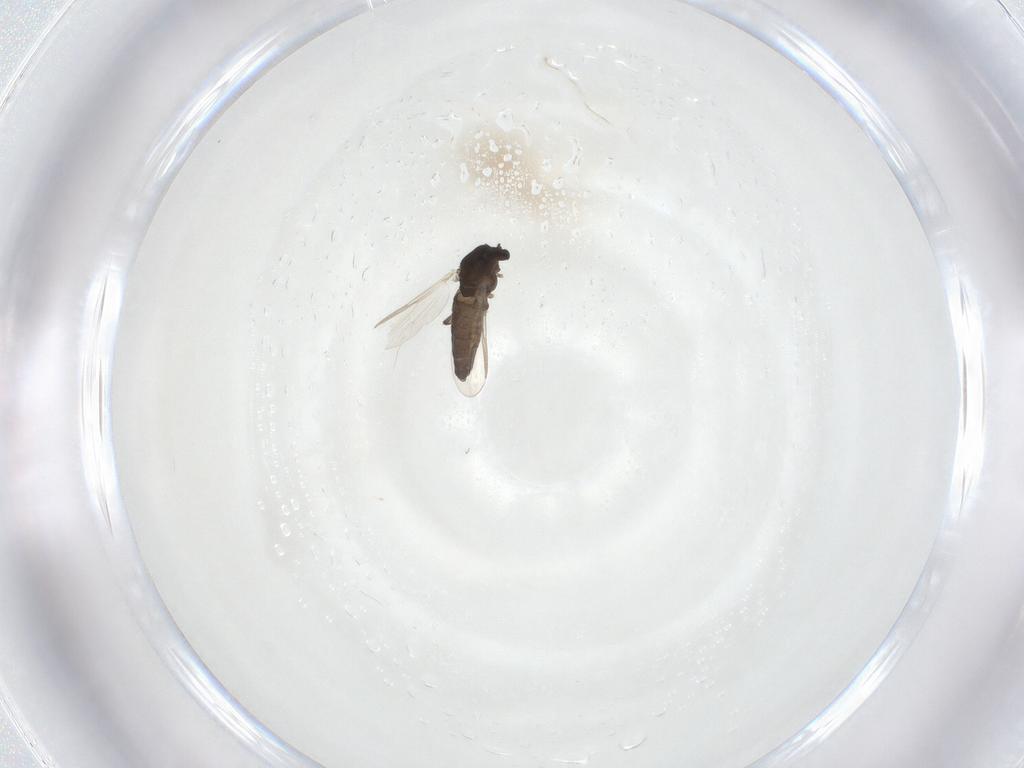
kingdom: Animalia
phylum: Arthropoda
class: Insecta
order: Diptera
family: Chironomidae
